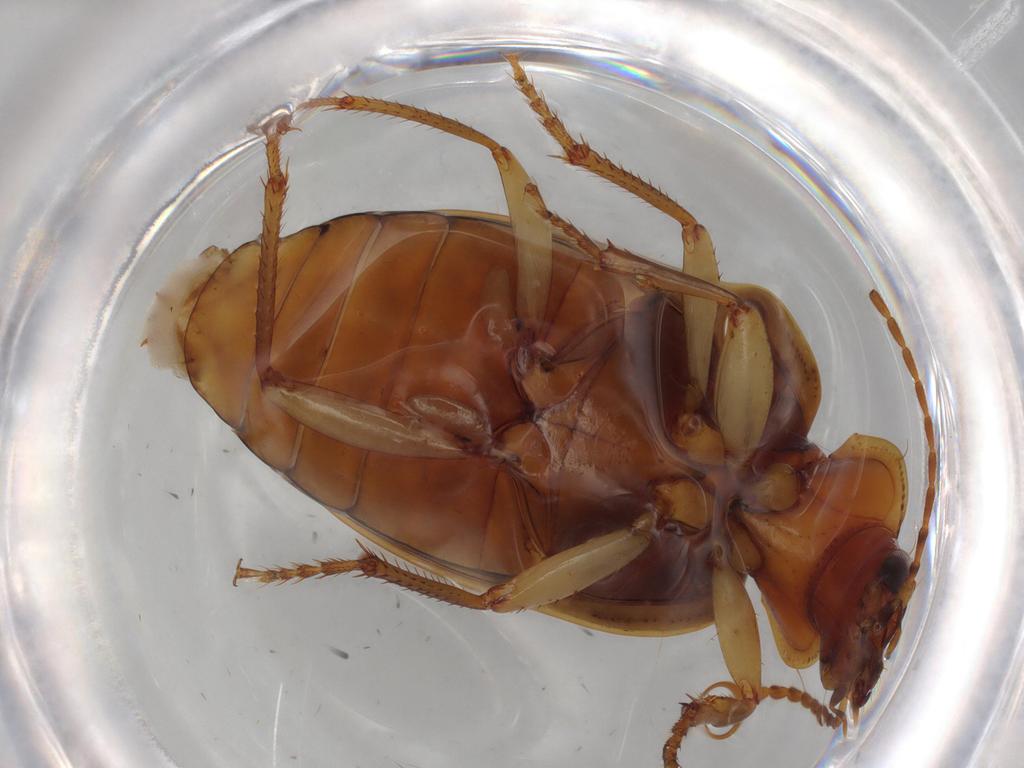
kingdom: Animalia
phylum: Arthropoda
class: Insecta
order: Coleoptera
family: Carabidae
